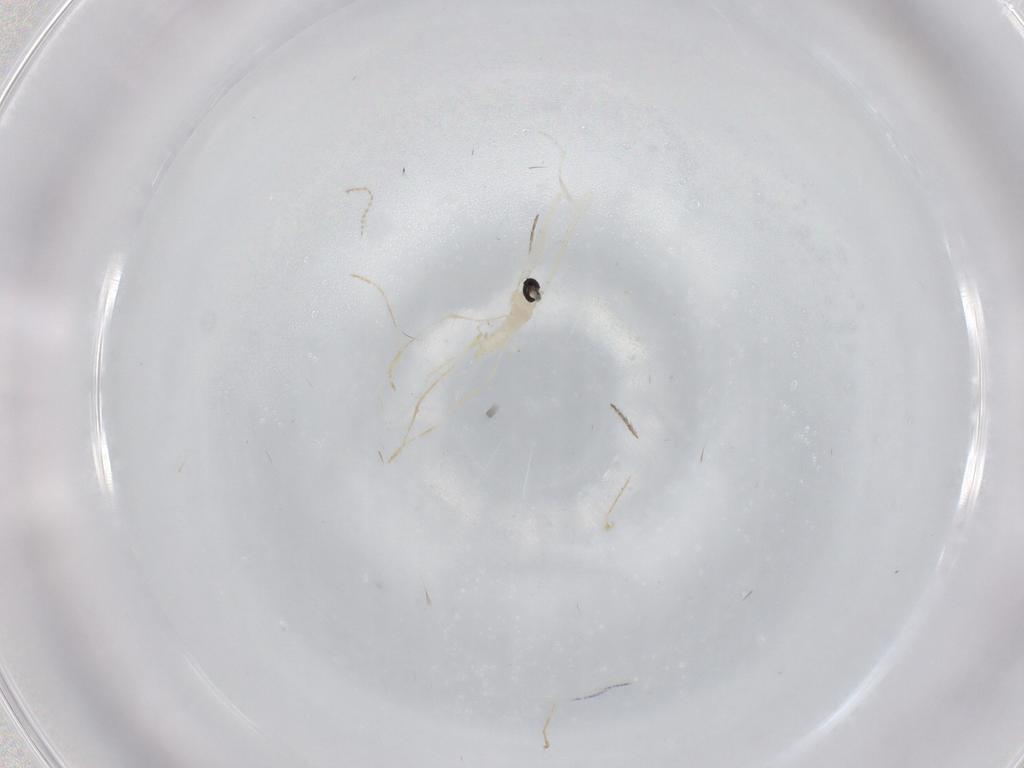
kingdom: Animalia
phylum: Arthropoda
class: Insecta
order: Diptera
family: Cecidomyiidae
